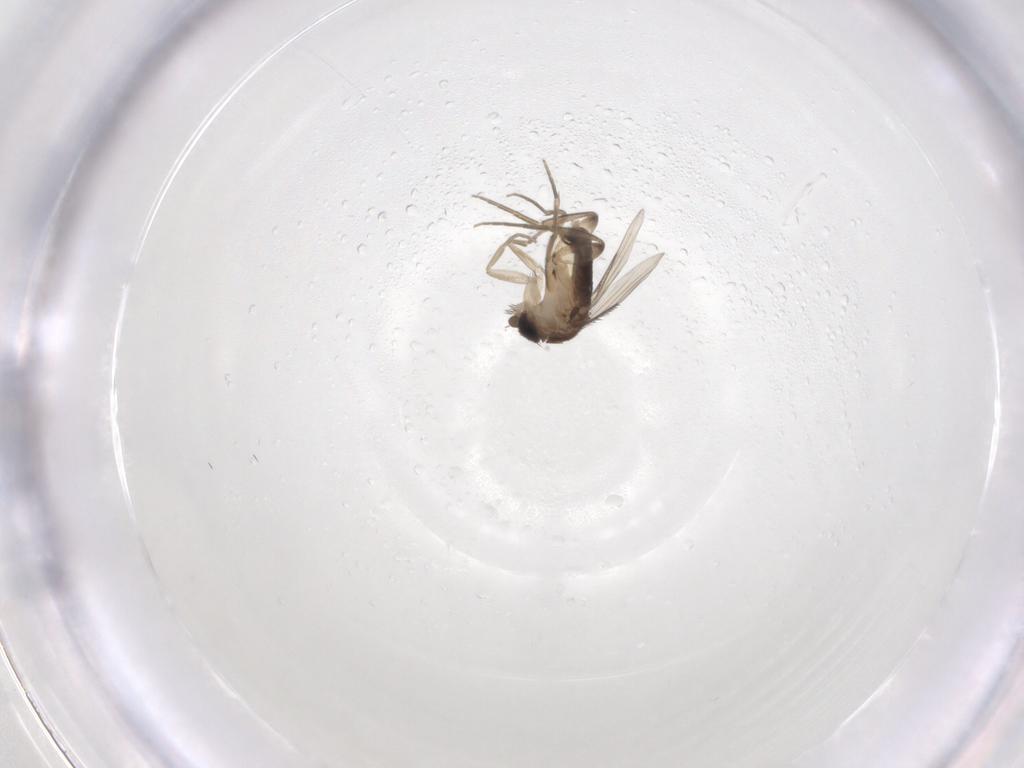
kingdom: Animalia
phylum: Arthropoda
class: Insecta
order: Diptera
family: Phoridae
